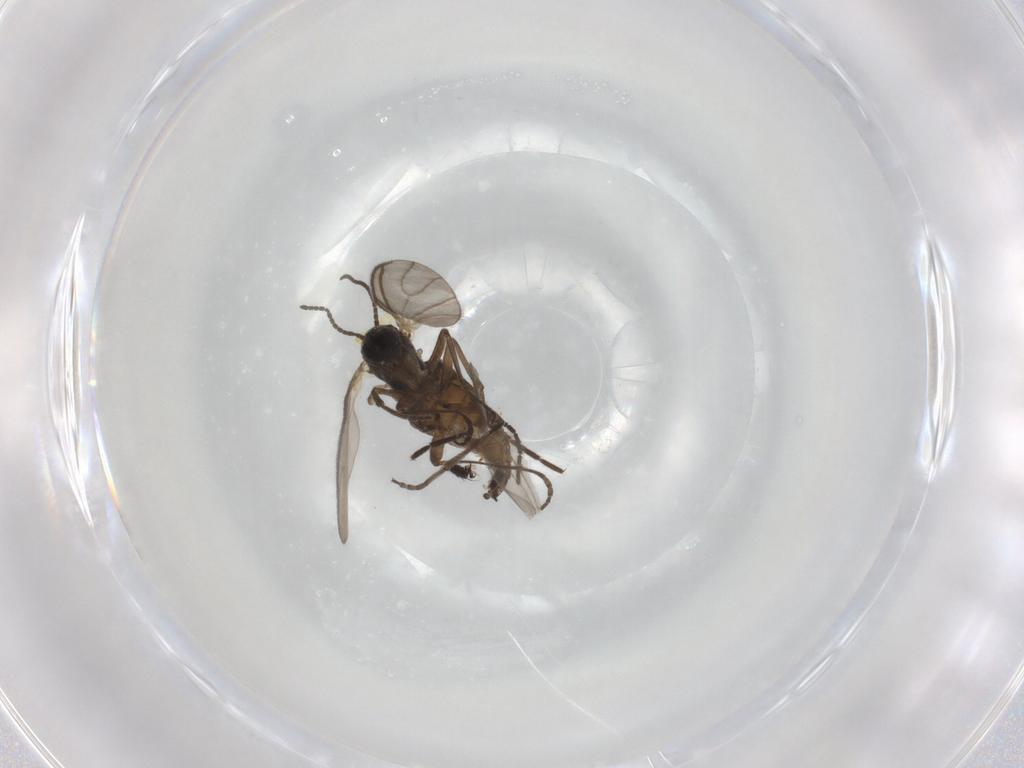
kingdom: Animalia
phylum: Arthropoda
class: Insecta
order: Diptera
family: Sciaridae
